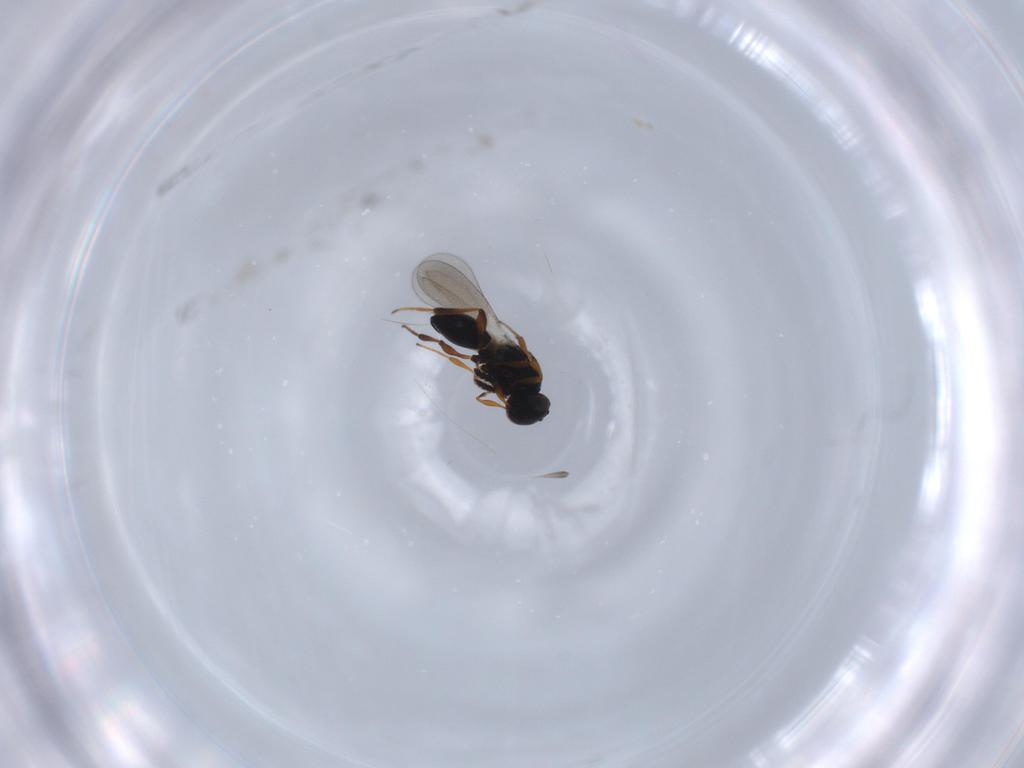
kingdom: Animalia
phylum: Arthropoda
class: Insecta
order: Hymenoptera
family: Platygastridae
